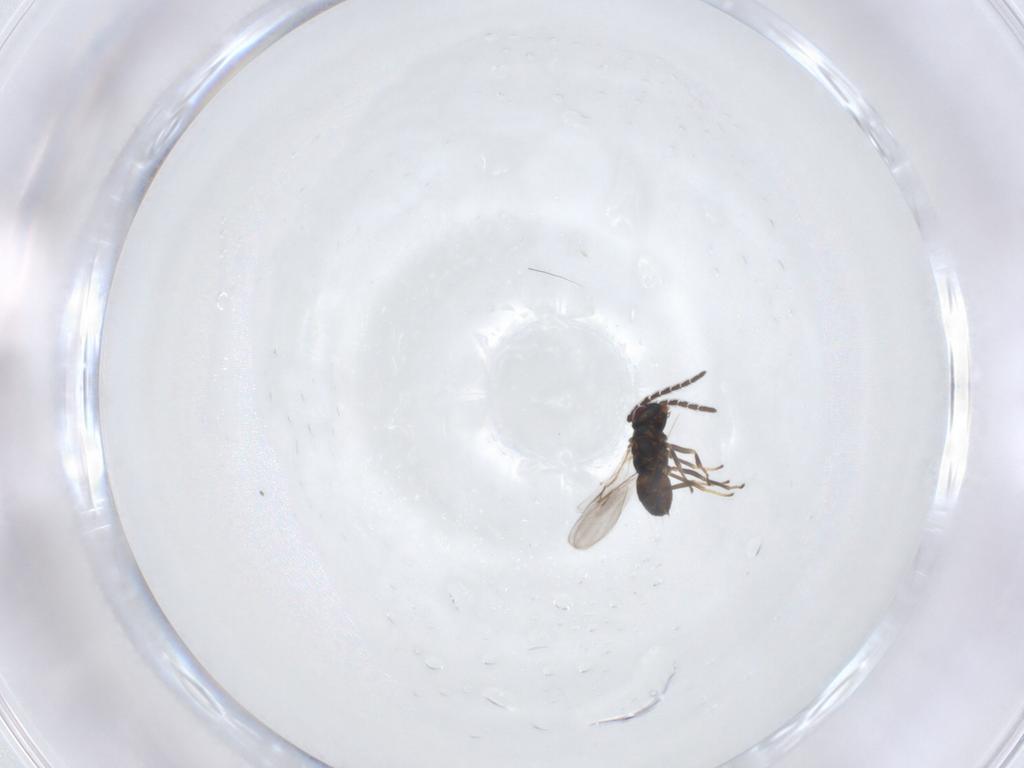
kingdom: Animalia
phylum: Arthropoda
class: Insecta
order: Hymenoptera
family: Encyrtidae
